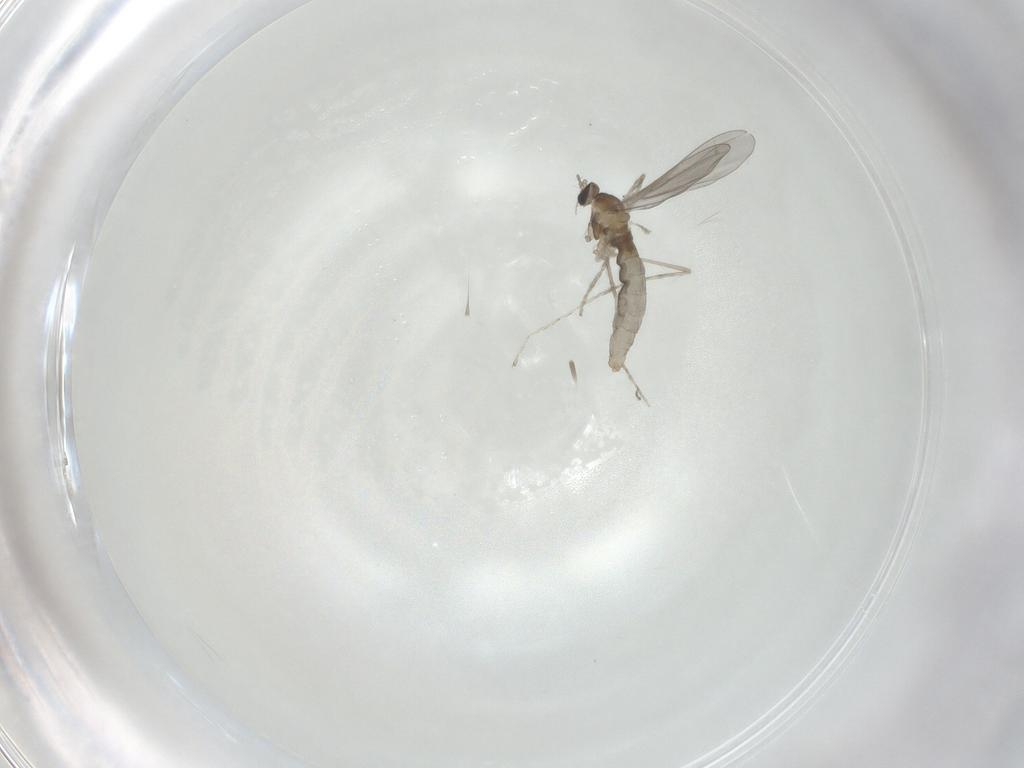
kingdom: Animalia
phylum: Arthropoda
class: Insecta
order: Diptera
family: Cecidomyiidae
